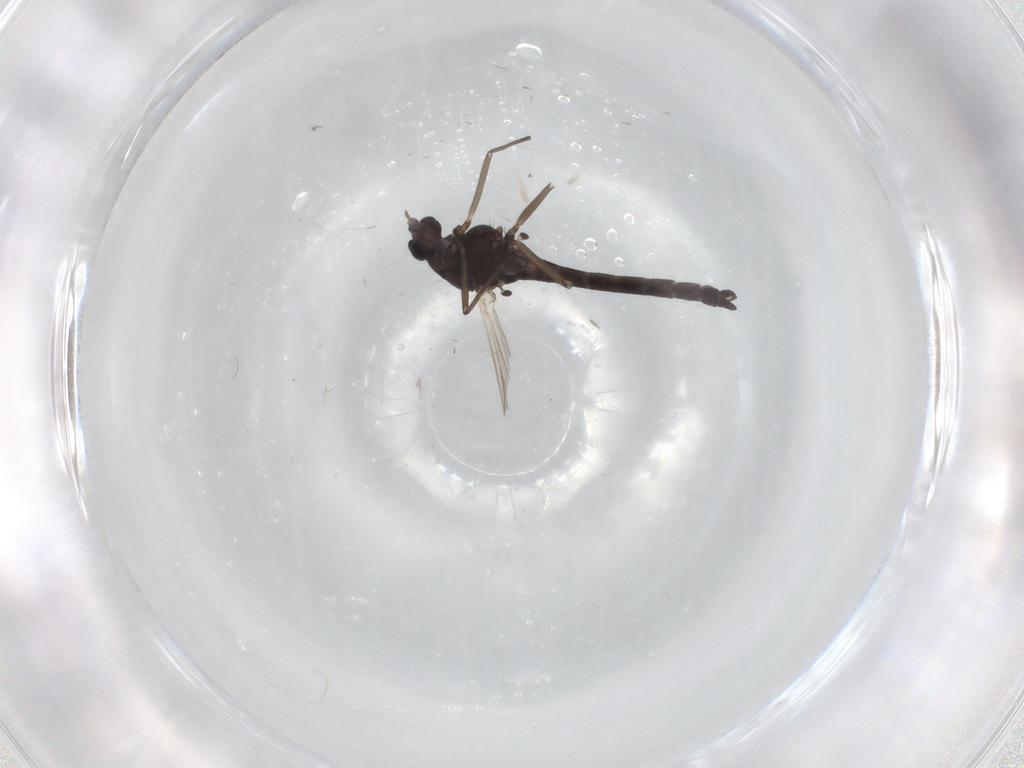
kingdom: Animalia
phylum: Arthropoda
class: Insecta
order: Diptera
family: Chironomidae
